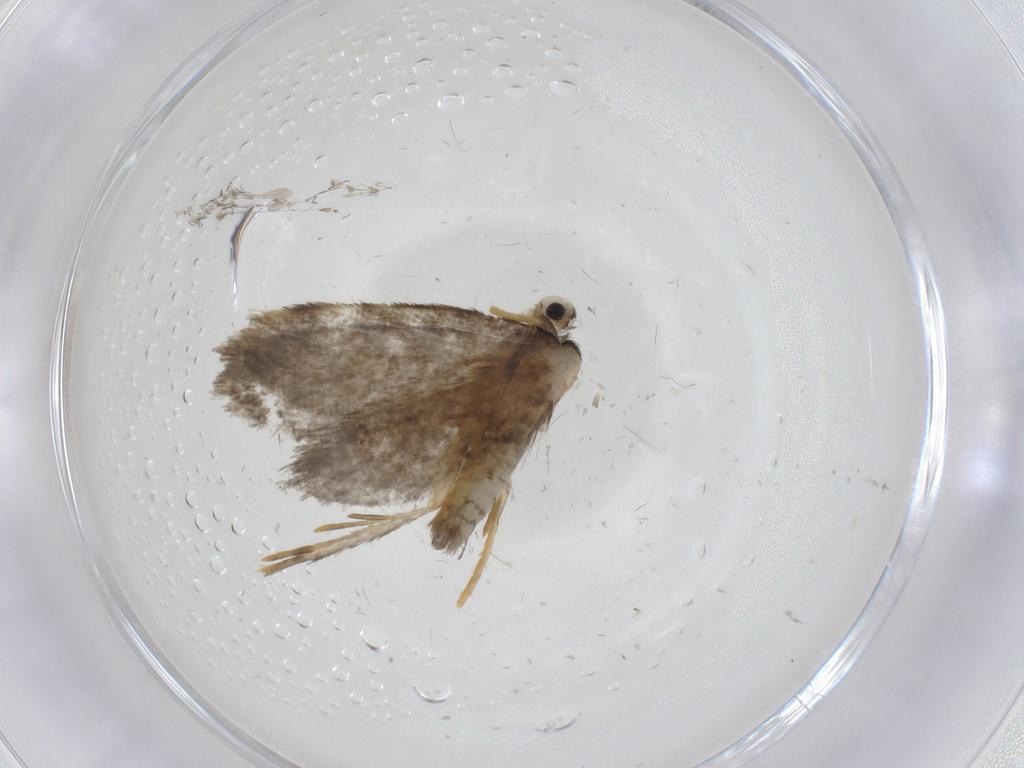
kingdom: Animalia
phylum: Arthropoda
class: Insecta
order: Lepidoptera
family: Psychidae
